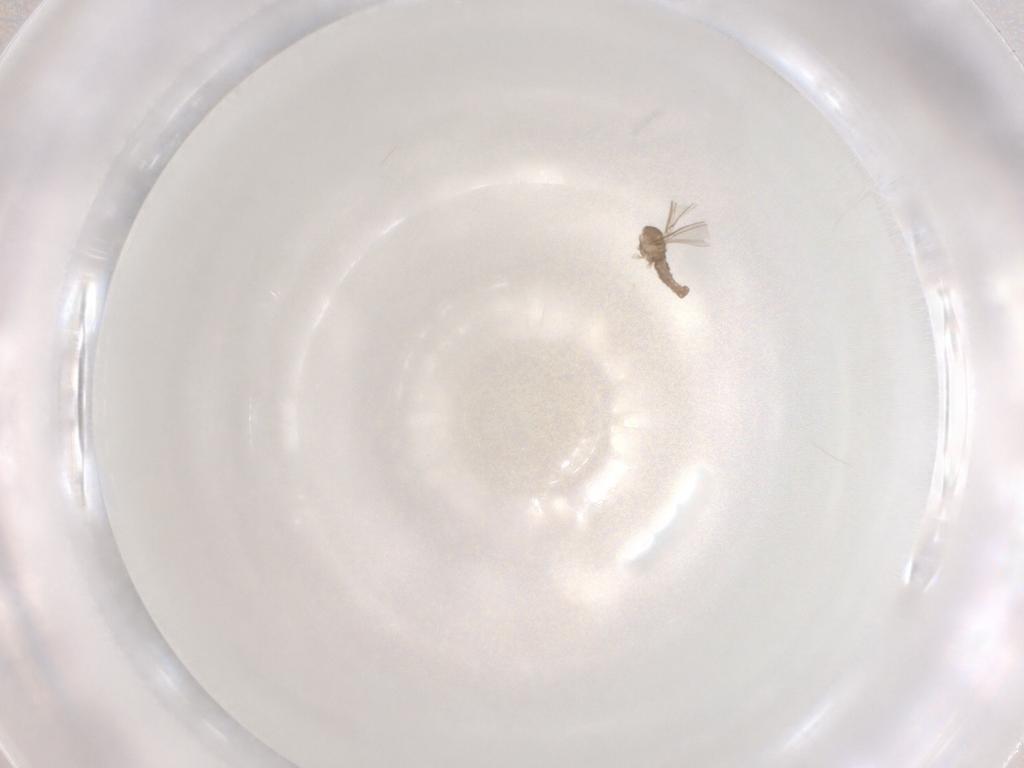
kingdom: Animalia
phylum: Arthropoda
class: Insecta
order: Diptera
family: Cecidomyiidae
